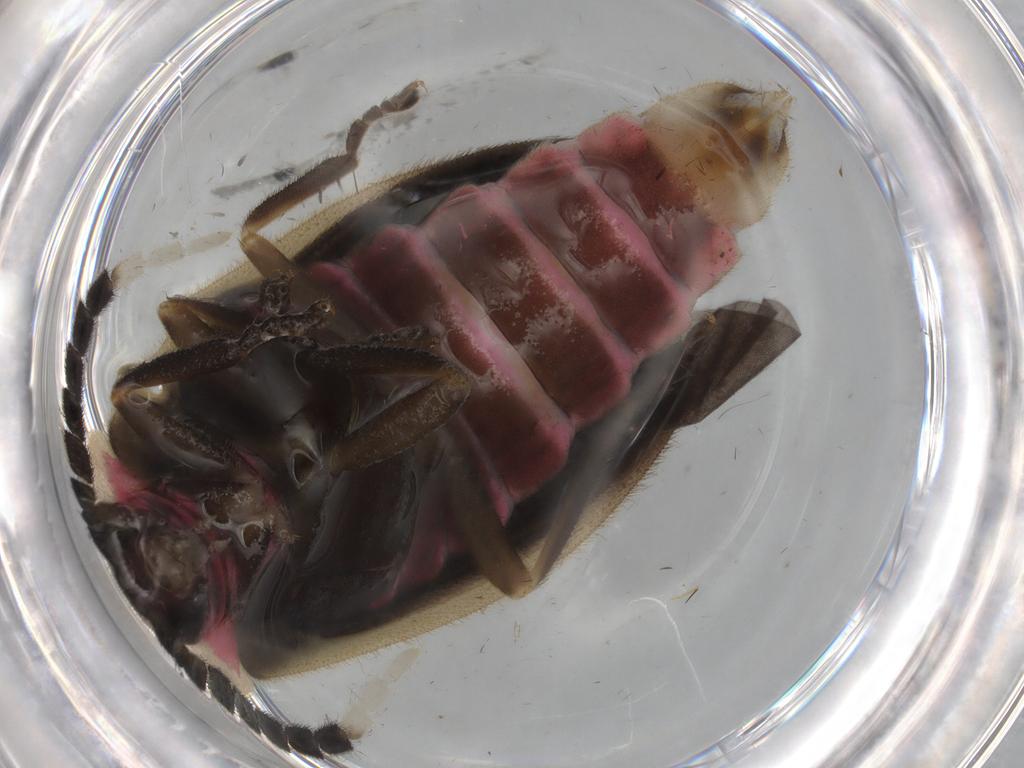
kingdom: Animalia
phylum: Arthropoda
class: Insecta
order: Coleoptera
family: Lampyridae
